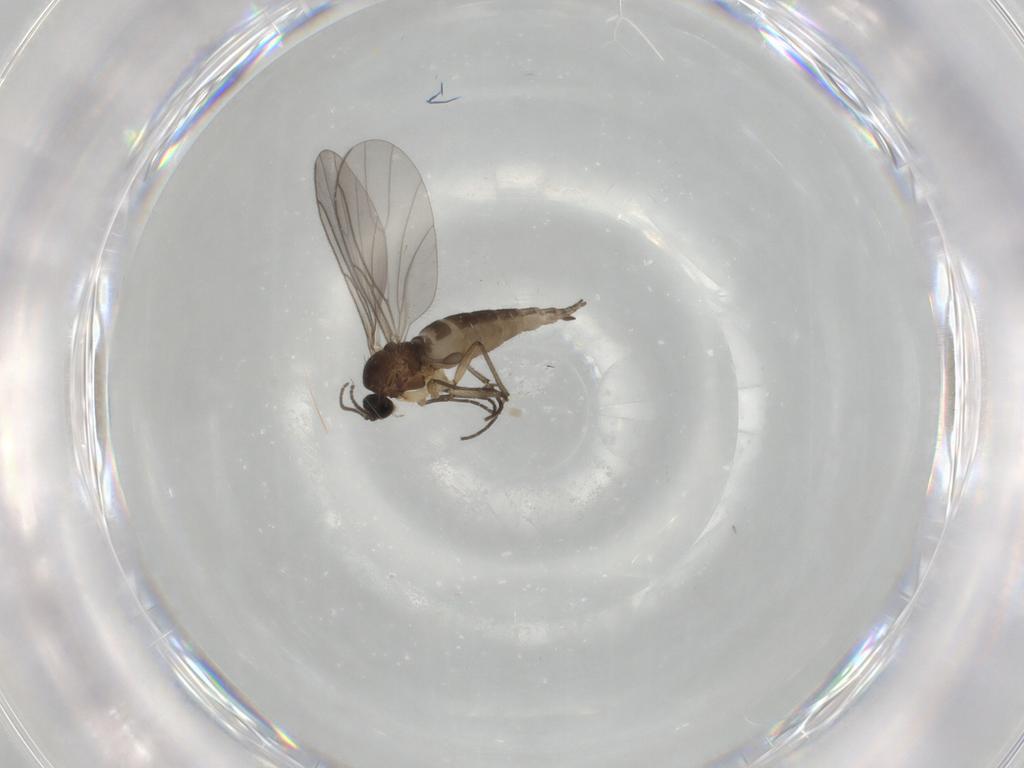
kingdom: Animalia
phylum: Arthropoda
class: Insecta
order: Diptera
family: Sciaridae
